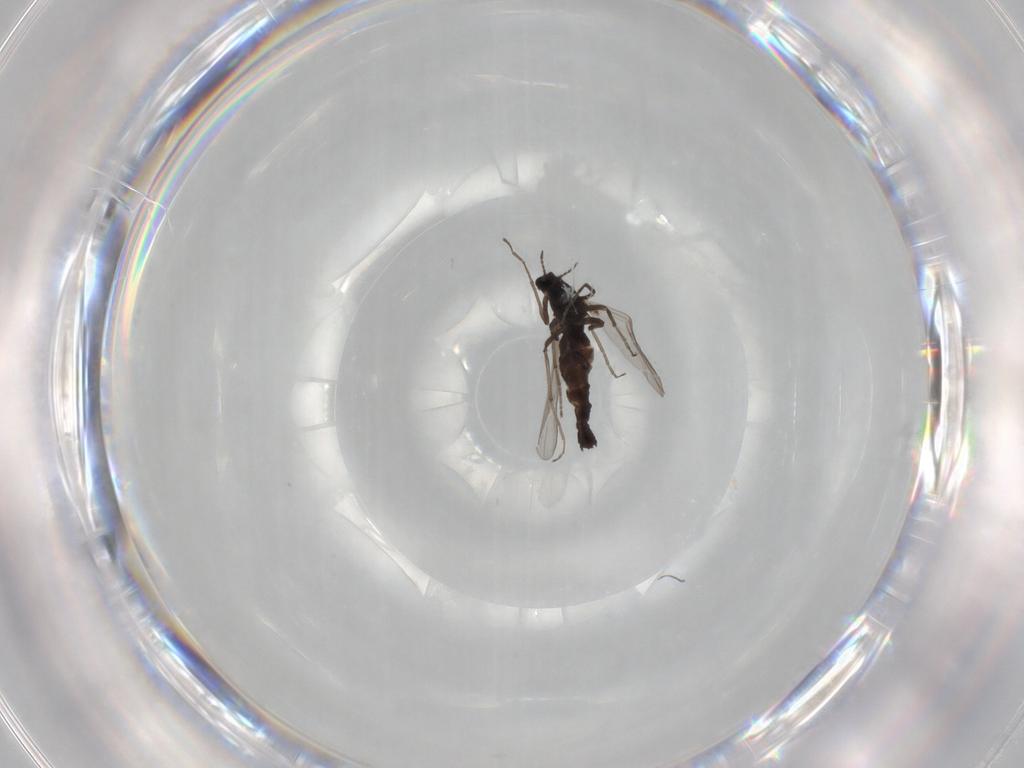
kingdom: Animalia
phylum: Arthropoda
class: Insecta
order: Diptera
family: Chironomidae
